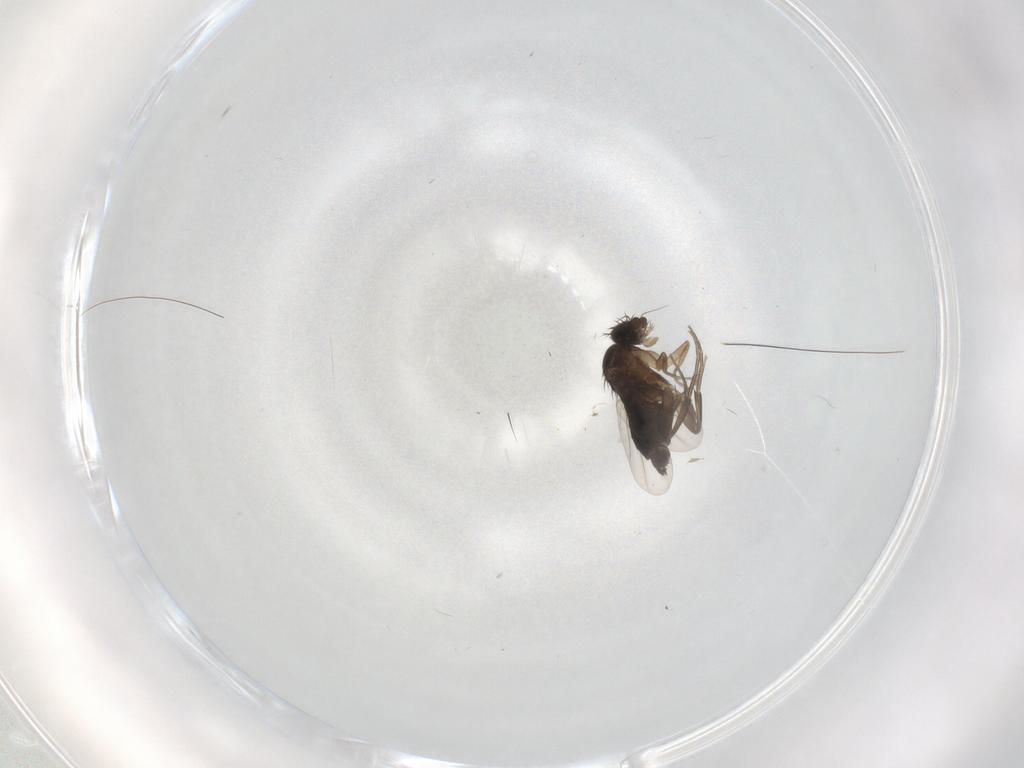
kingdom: Animalia
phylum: Arthropoda
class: Insecta
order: Diptera
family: Phoridae
